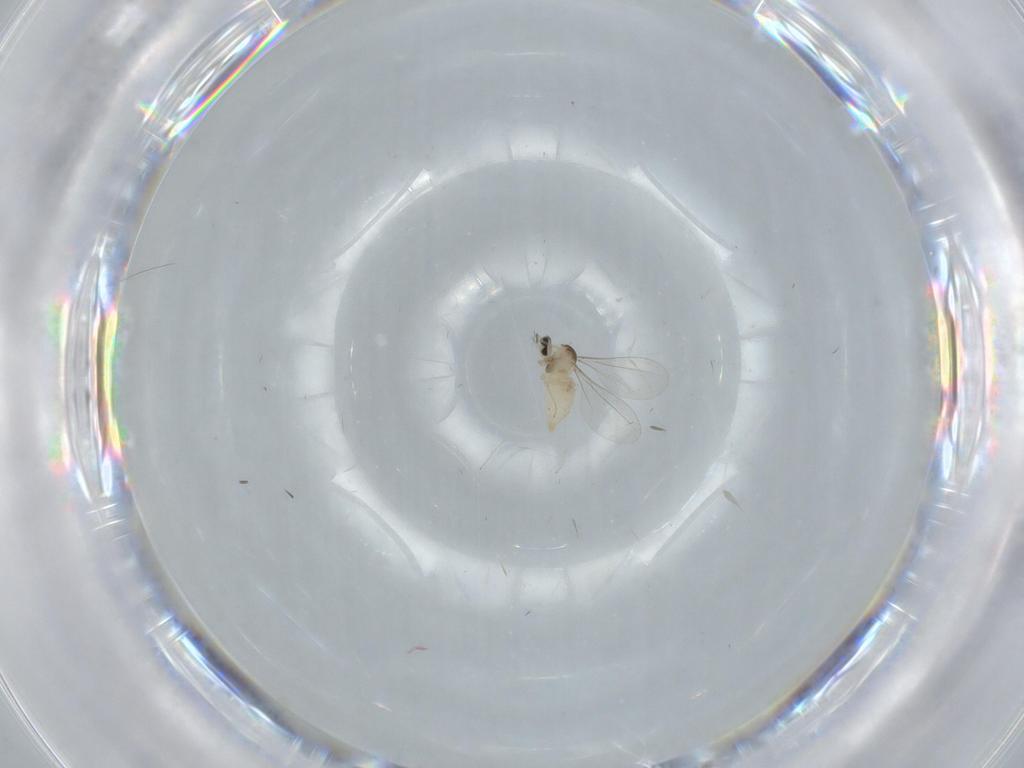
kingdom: Animalia
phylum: Arthropoda
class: Insecta
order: Diptera
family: Cecidomyiidae
